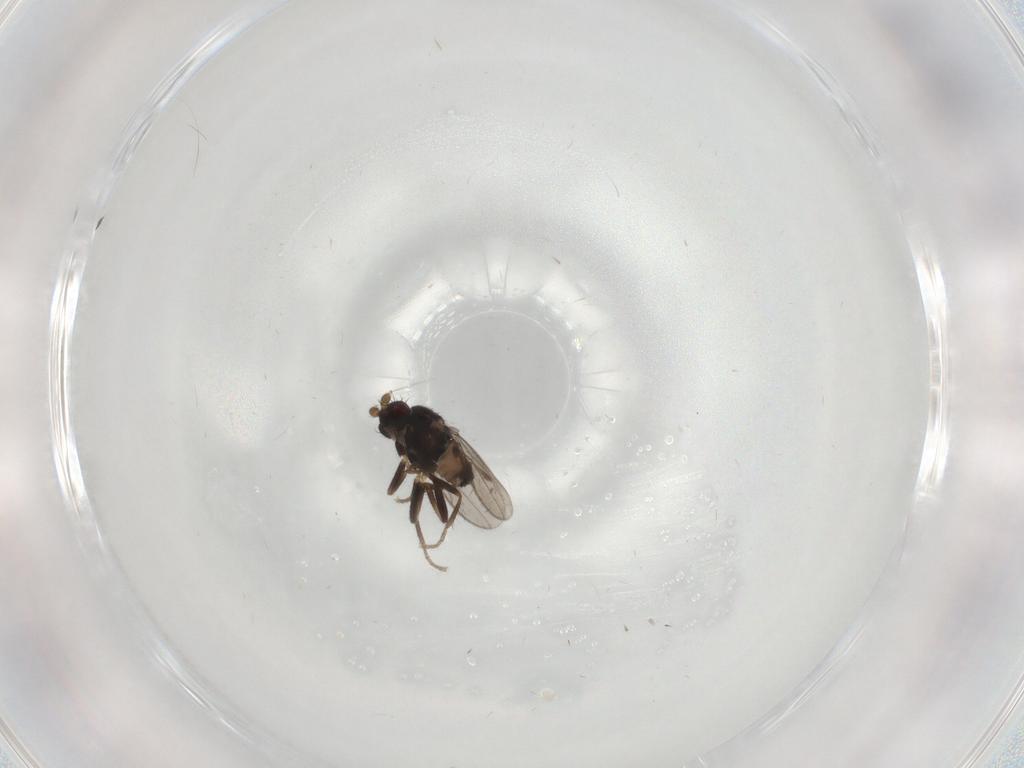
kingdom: Animalia
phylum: Arthropoda
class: Insecta
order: Diptera
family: Sphaeroceridae
